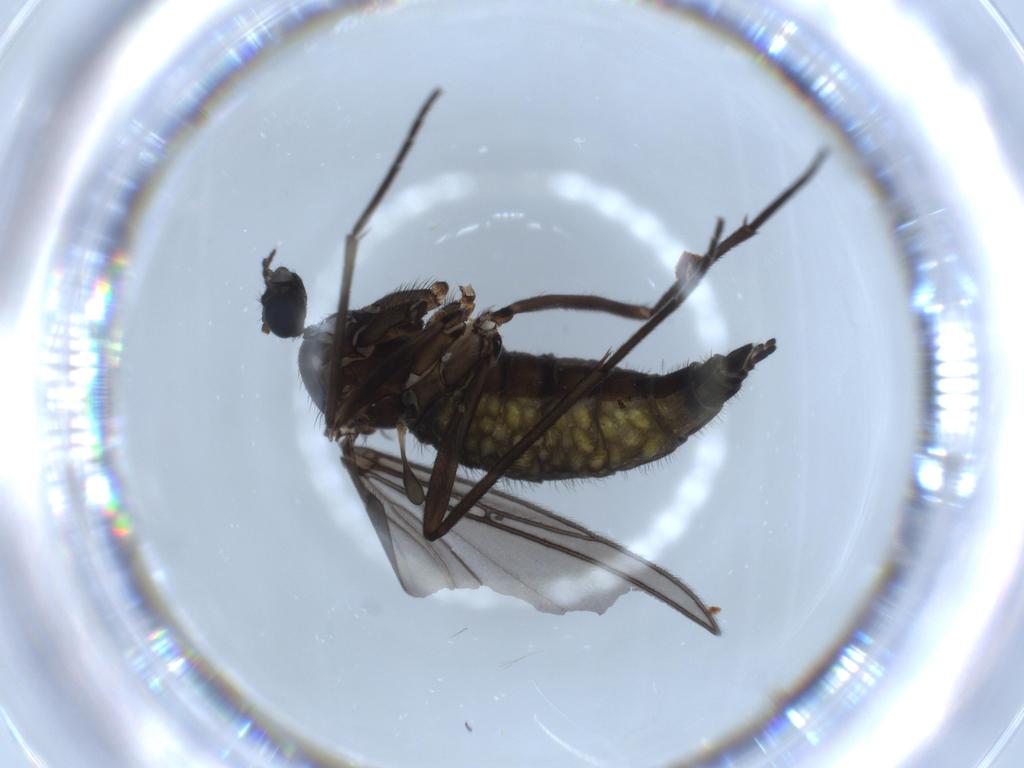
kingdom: Animalia
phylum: Arthropoda
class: Insecta
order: Diptera
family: Sciaridae
